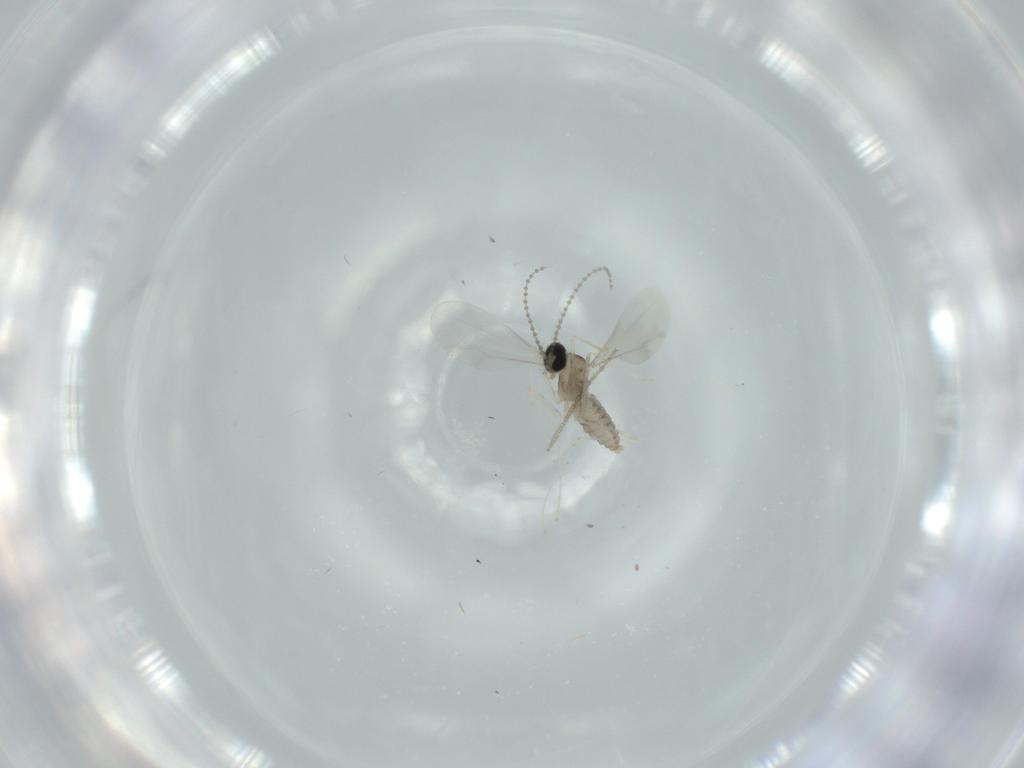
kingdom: Animalia
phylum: Arthropoda
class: Insecta
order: Diptera
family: Cecidomyiidae
